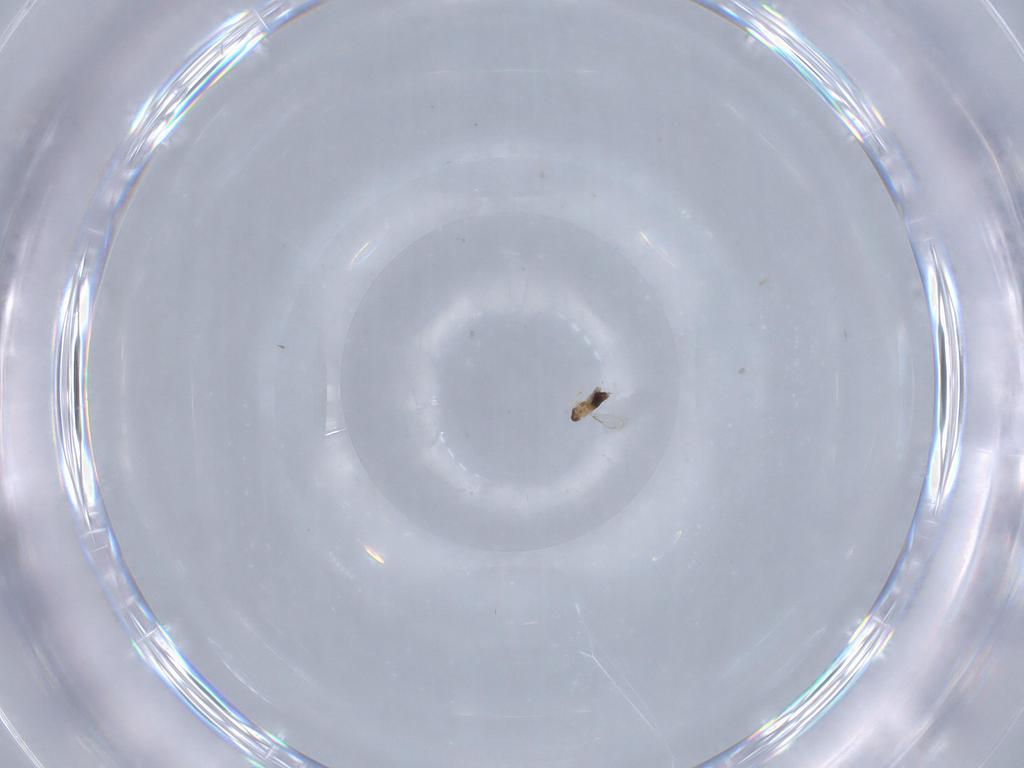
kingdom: Animalia
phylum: Arthropoda
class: Insecta
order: Hymenoptera
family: Aphelinidae
